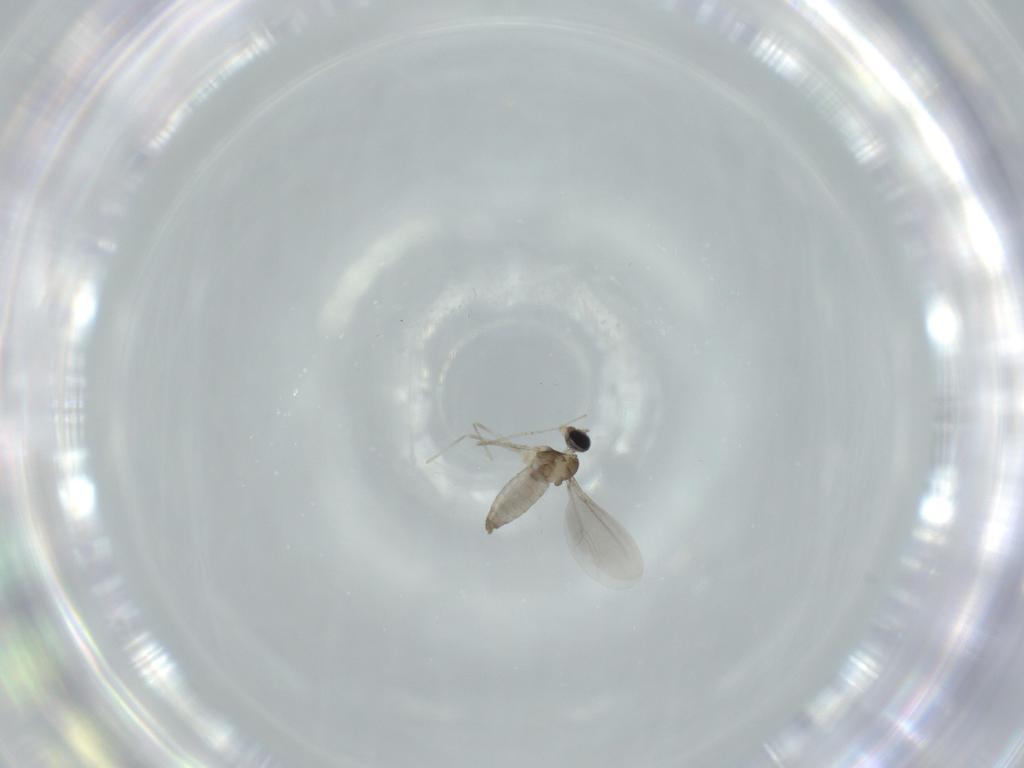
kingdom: Animalia
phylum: Arthropoda
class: Insecta
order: Diptera
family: Cecidomyiidae
